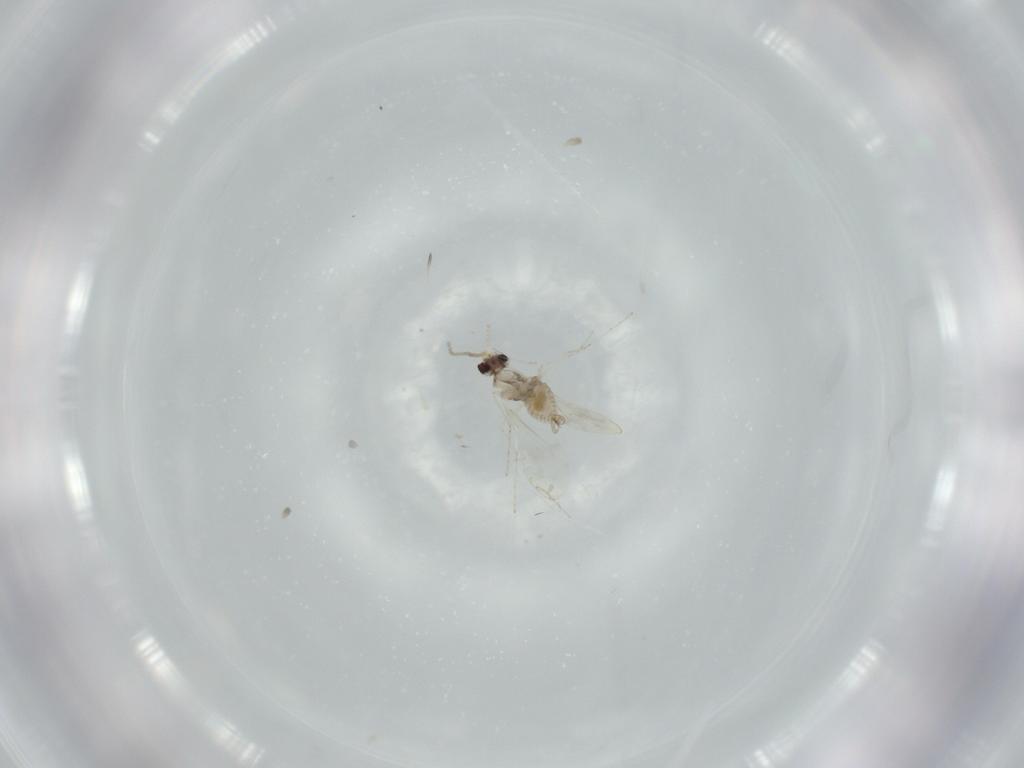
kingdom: Animalia
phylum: Arthropoda
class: Insecta
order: Diptera
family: Cecidomyiidae
